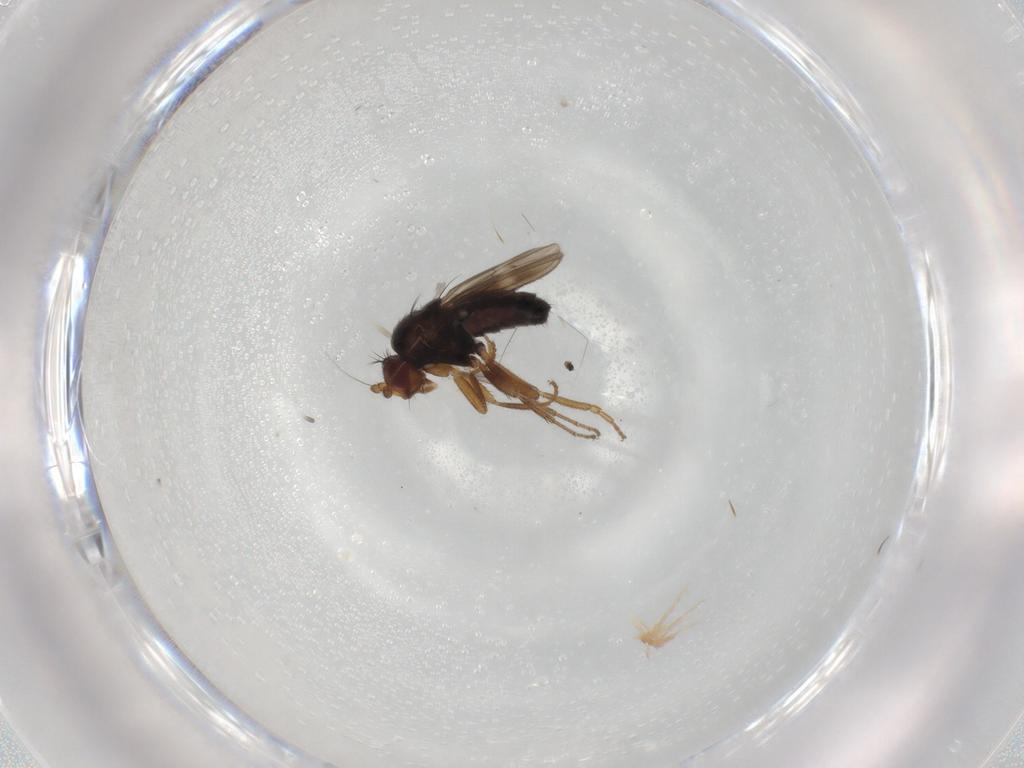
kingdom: Animalia
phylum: Arthropoda
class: Insecta
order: Diptera
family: Sphaeroceridae
